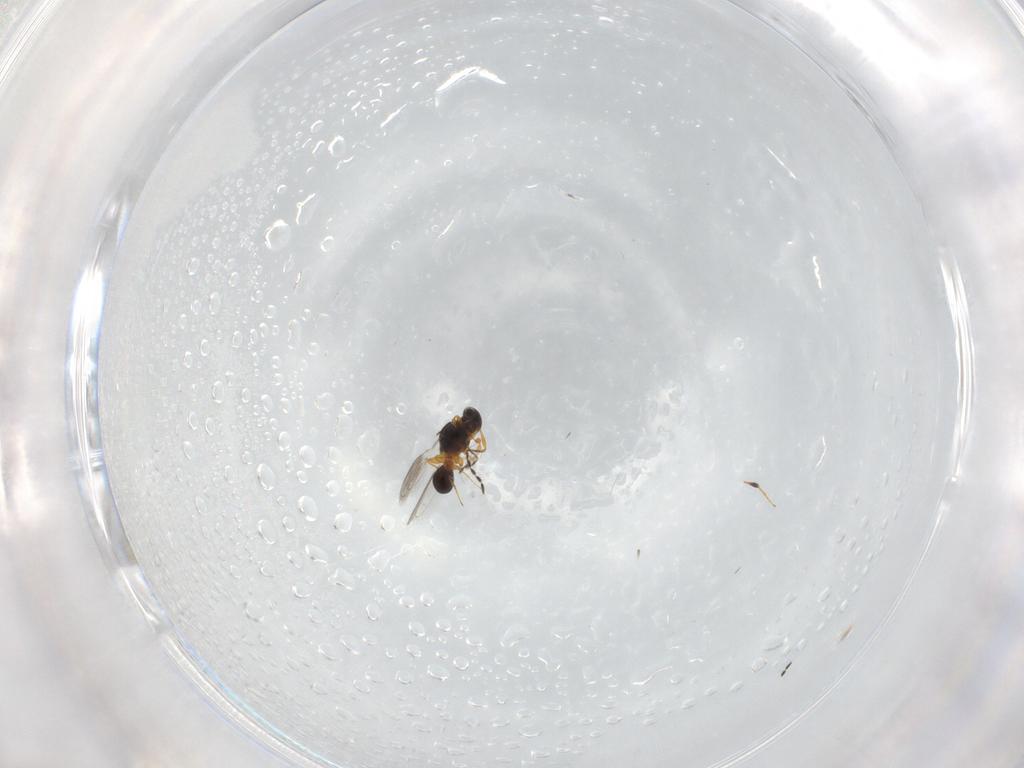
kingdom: Animalia
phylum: Arthropoda
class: Insecta
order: Hymenoptera
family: Platygastridae
